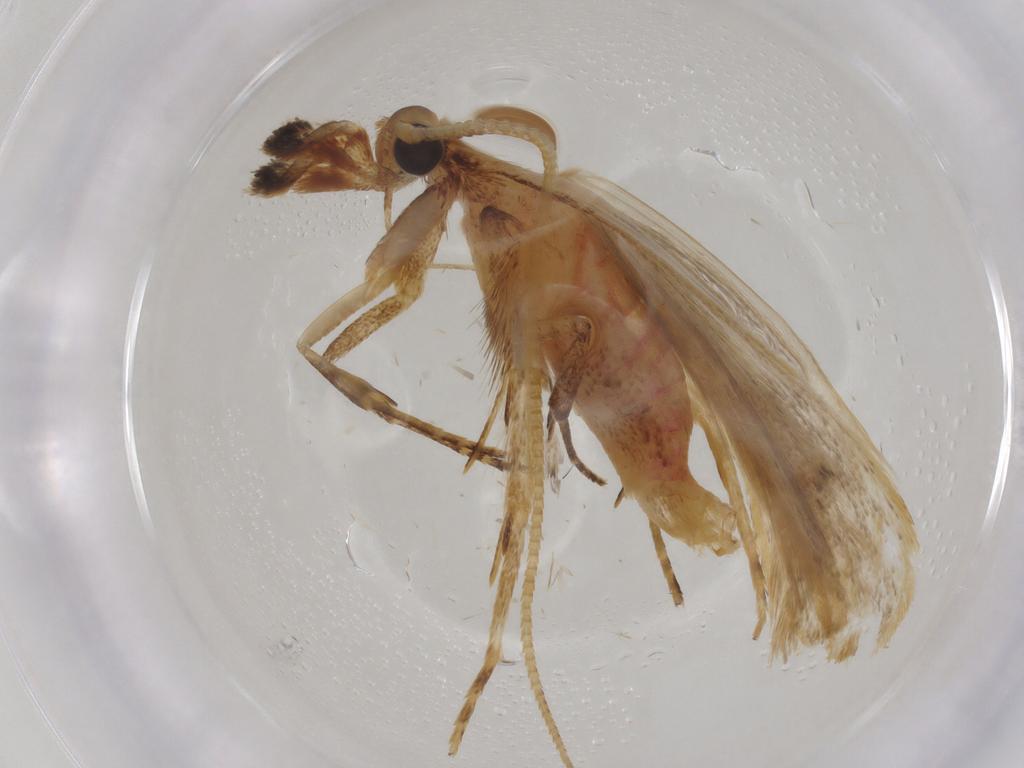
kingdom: Animalia
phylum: Arthropoda
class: Insecta
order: Lepidoptera
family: Lecithoceridae
